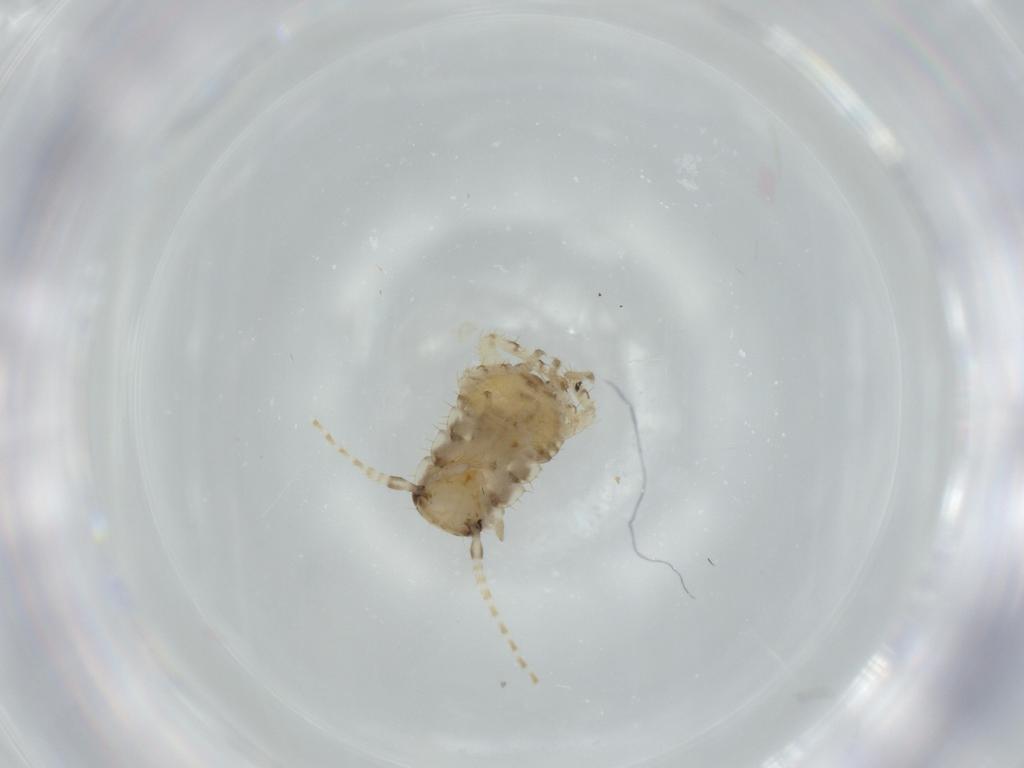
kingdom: Animalia
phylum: Arthropoda
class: Insecta
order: Blattodea
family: Ectobiidae
